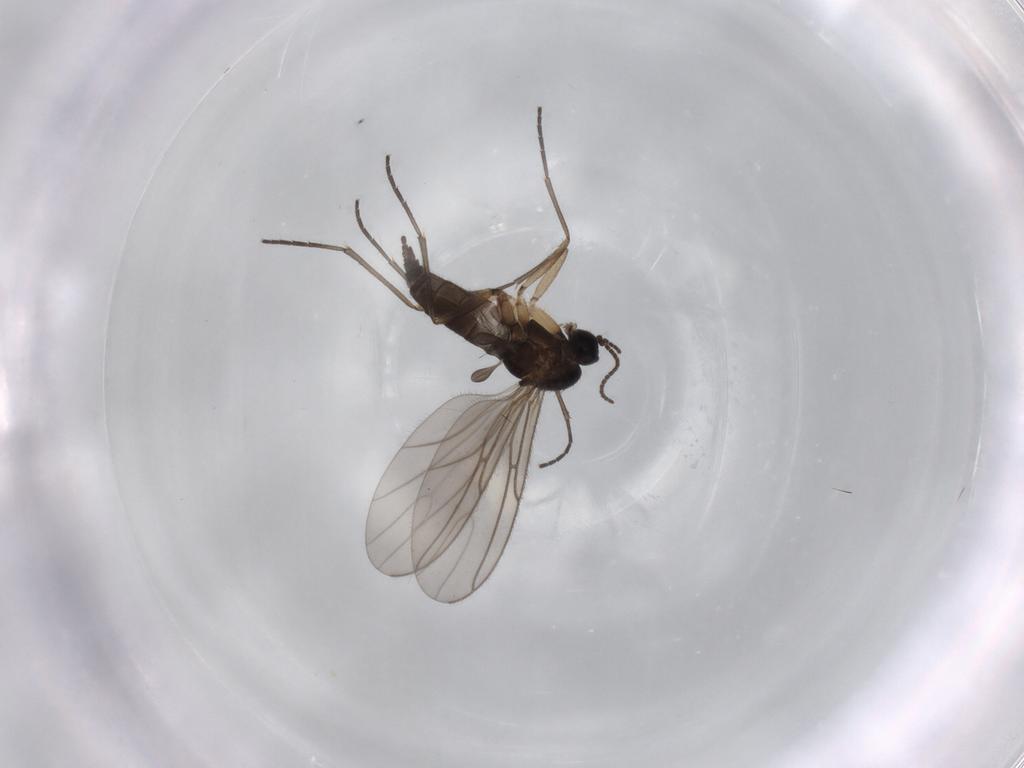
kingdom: Animalia
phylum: Arthropoda
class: Insecta
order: Diptera
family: Sciaridae
